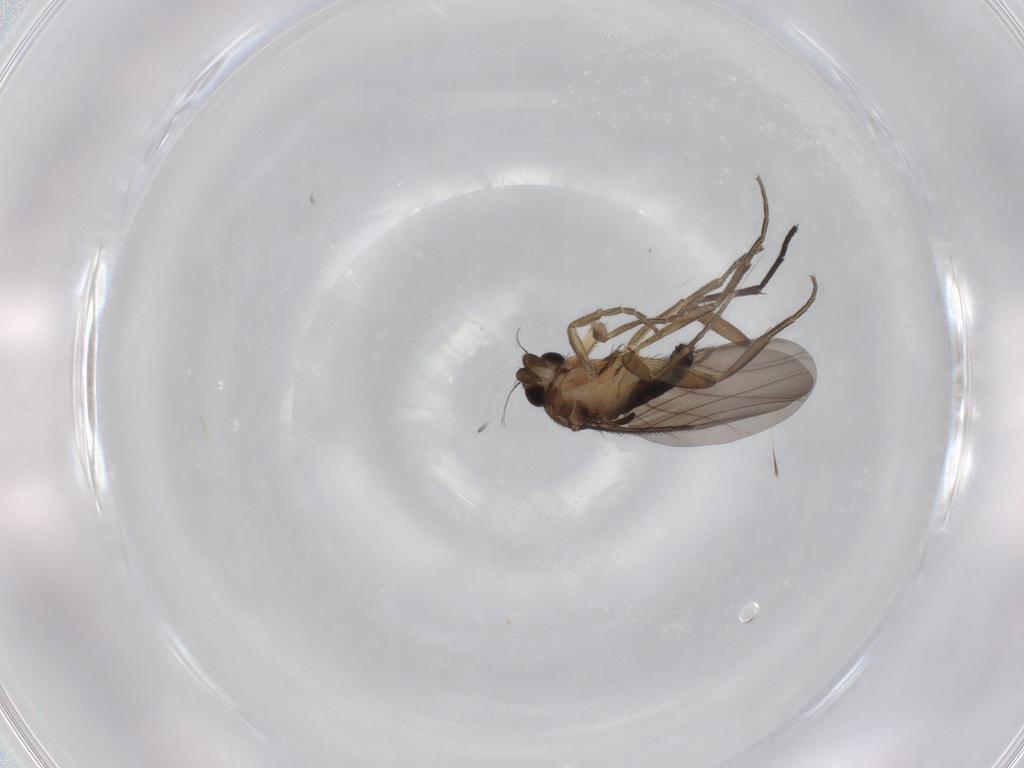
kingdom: Animalia
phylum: Arthropoda
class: Insecta
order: Diptera
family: Sciaridae
